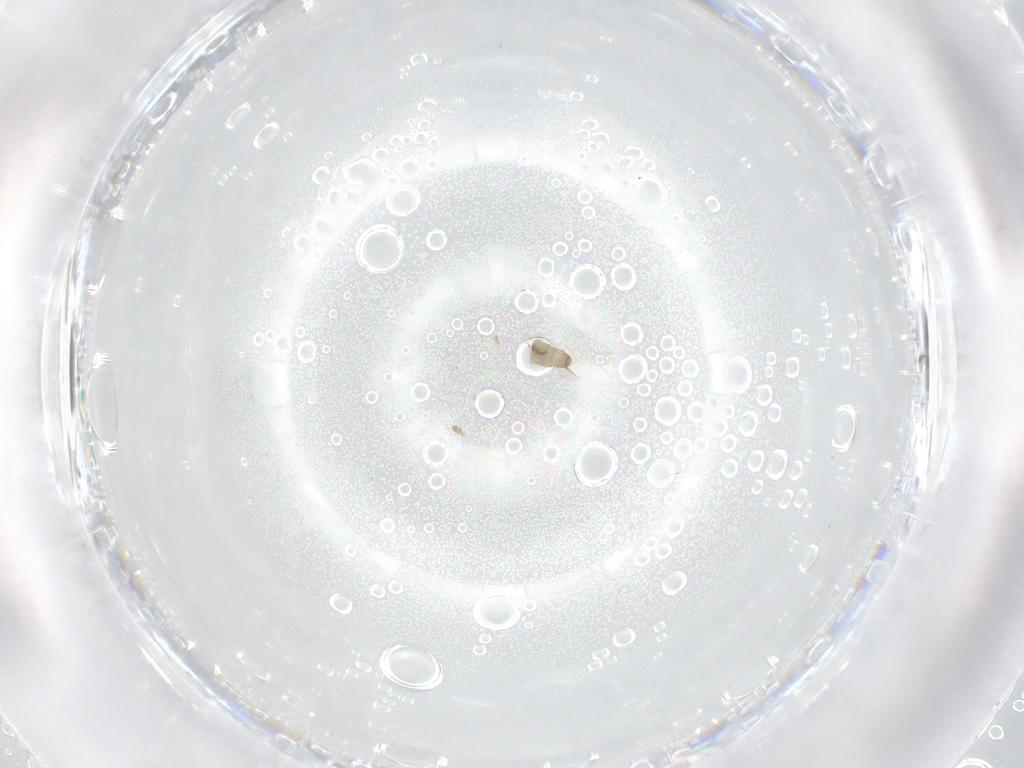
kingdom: Animalia
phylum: Arthropoda
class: Insecta
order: Diptera
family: Cecidomyiidae
